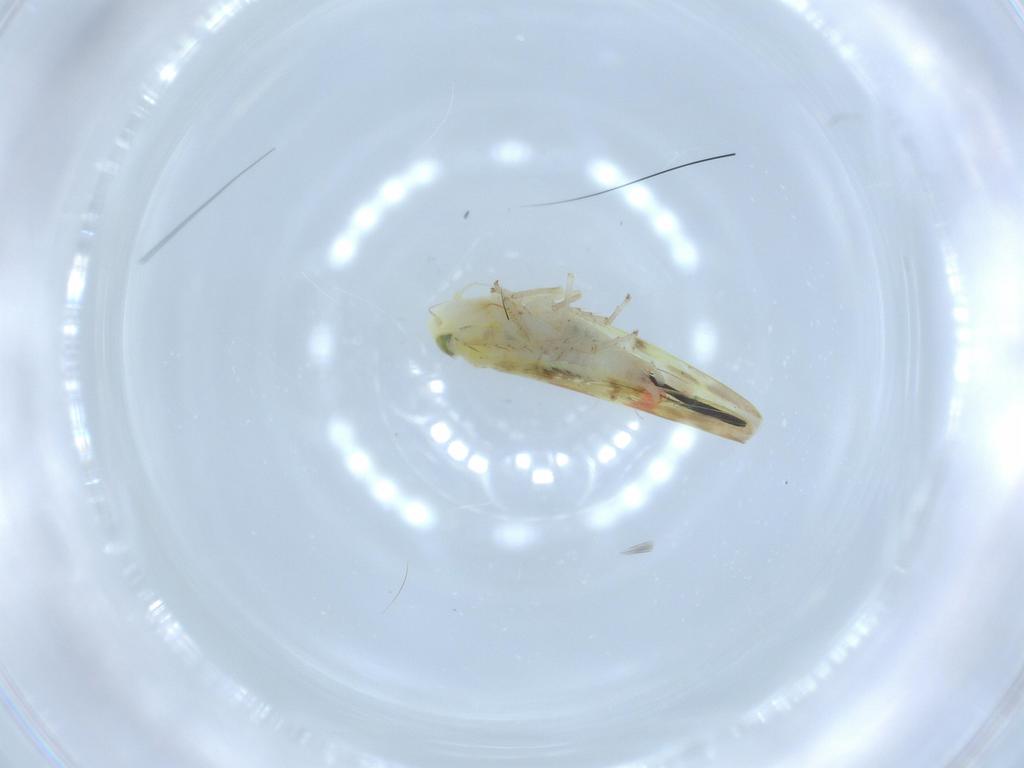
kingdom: Animalia
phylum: Arthropoda
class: Insecta
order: Hemiptera
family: Cicadellidae
